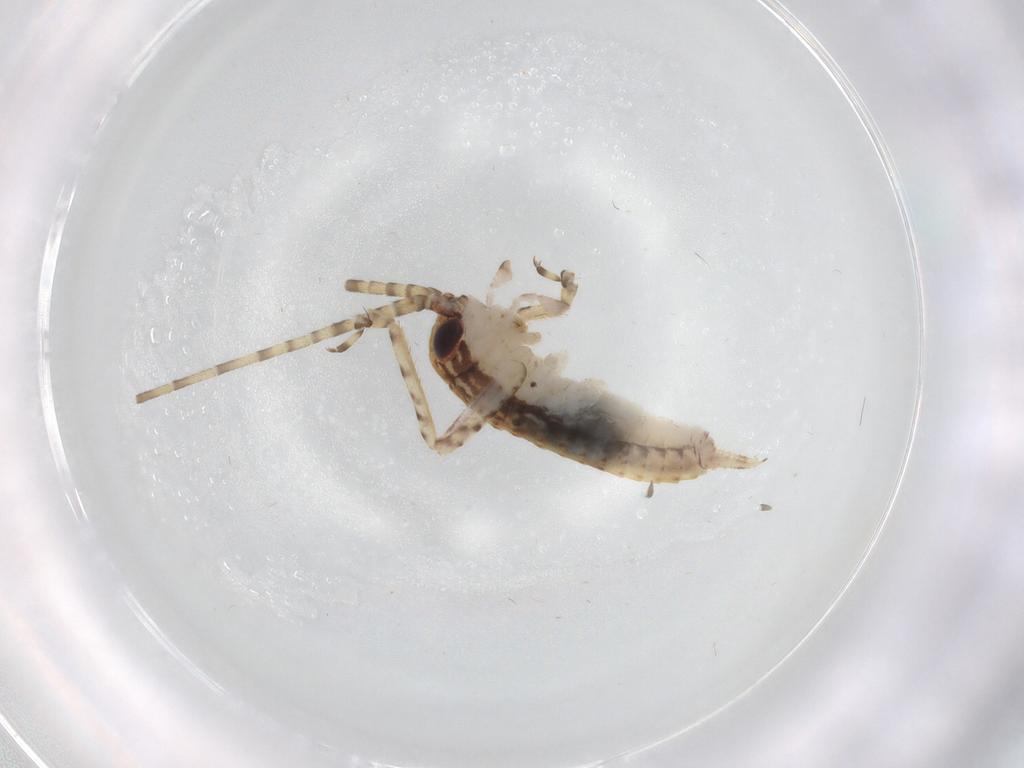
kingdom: Animalia
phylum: Arthropoda
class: Insecta
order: Orthoptera
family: Gryllidae
